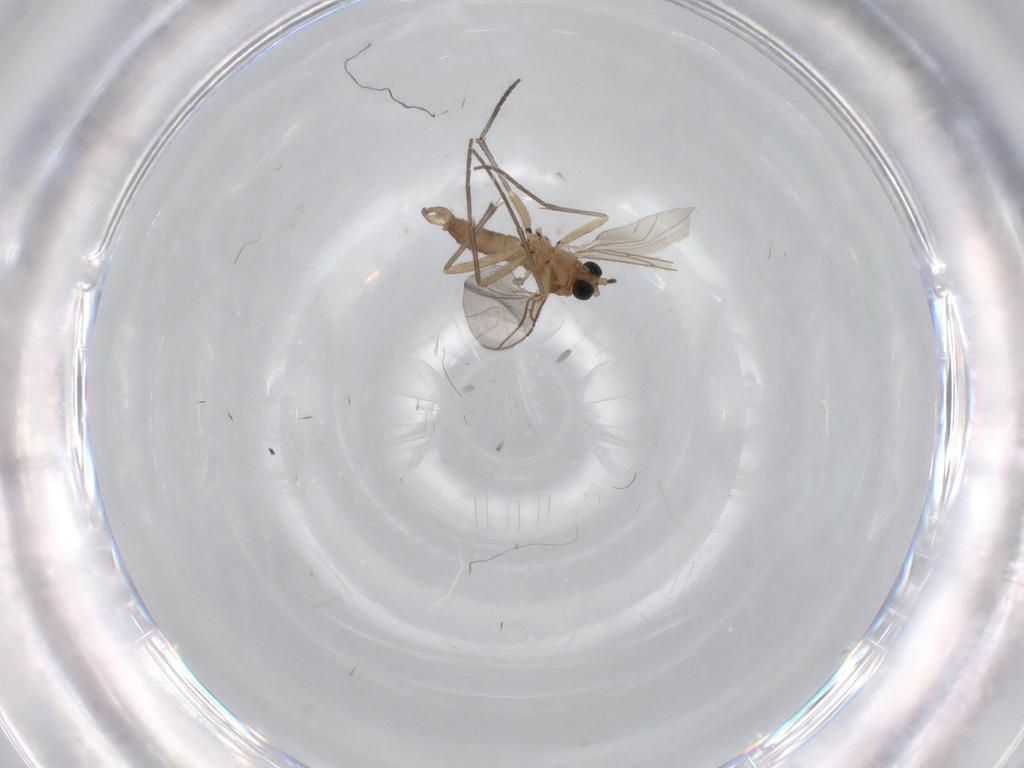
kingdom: Animalia
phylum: Arthropoda
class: Insecta
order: Diptera
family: Sciaridae
